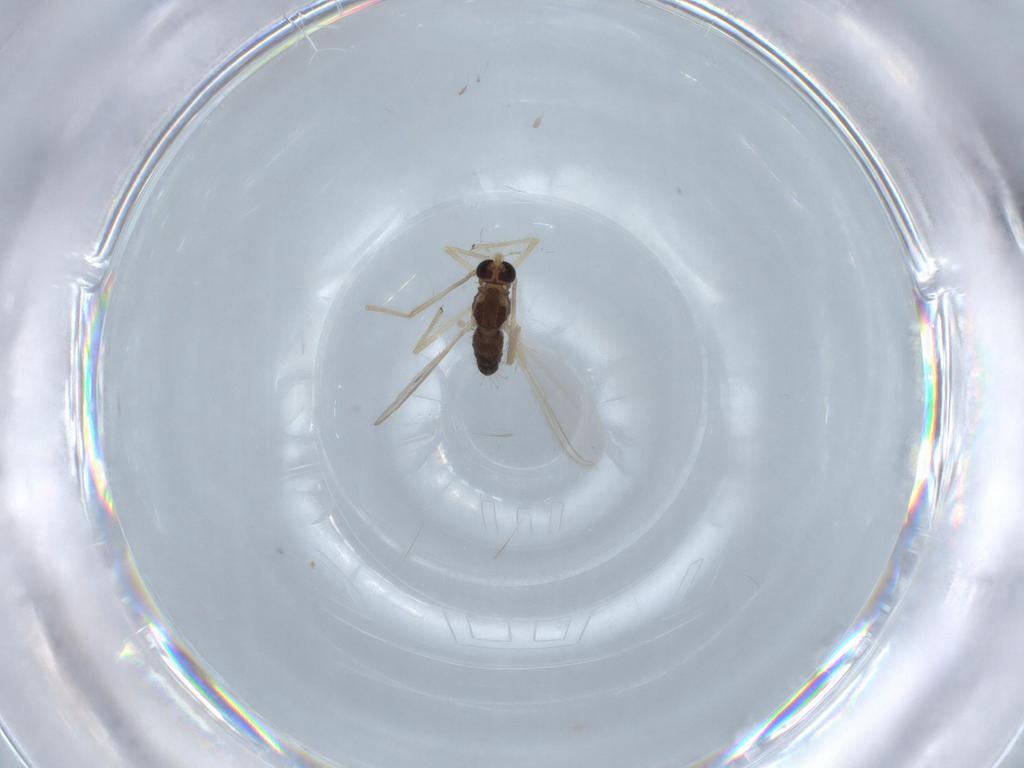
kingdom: Animalia
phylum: Arthropoda
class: Insecta
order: Diptera
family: Chironomidae
